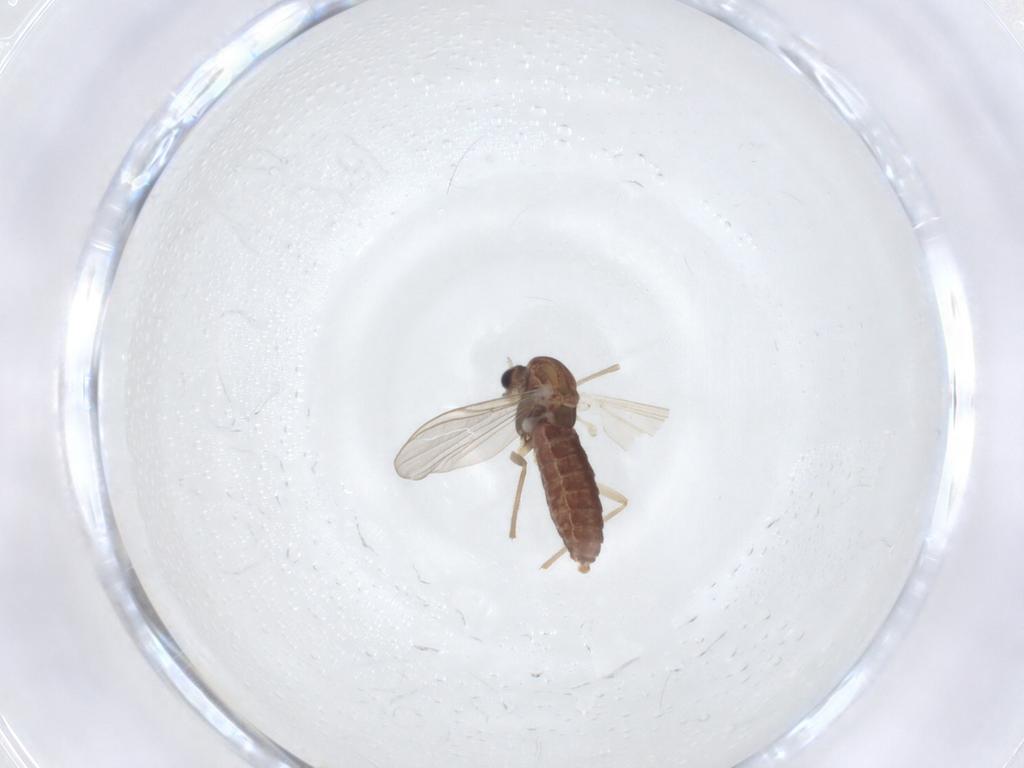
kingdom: Animalia
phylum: Arthropoda
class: Insecta
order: Diptera
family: Chironomidae
